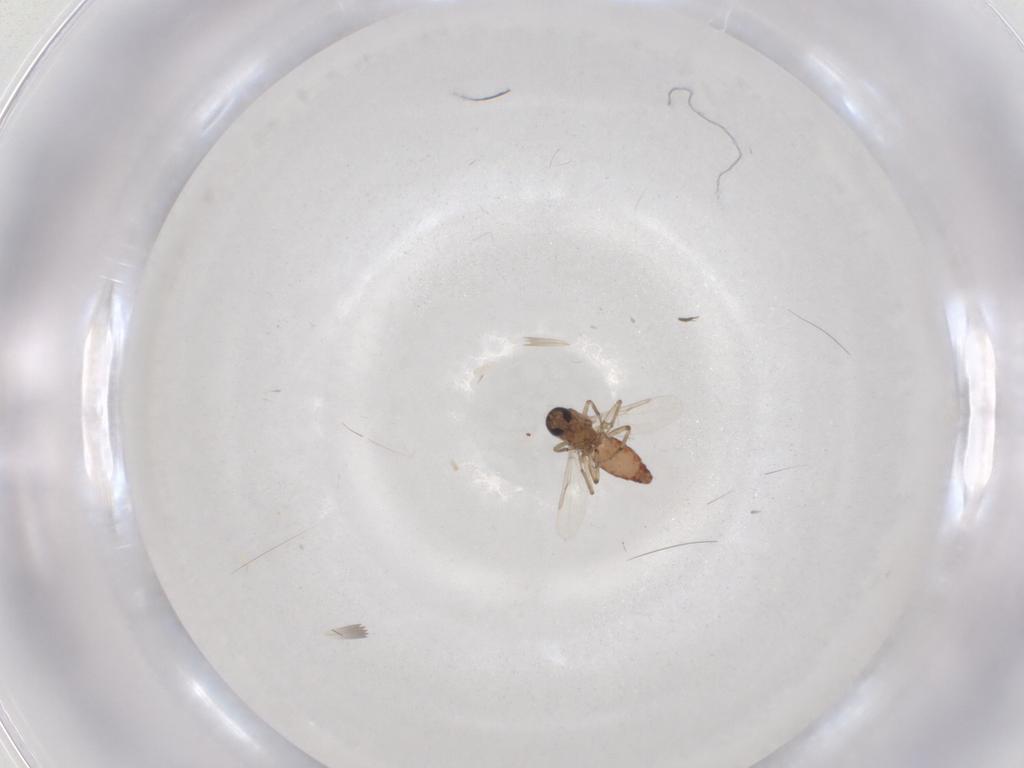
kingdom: Animalia
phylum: Arthropoda
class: Insecta
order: Diptera
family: Ceratopogonidae
